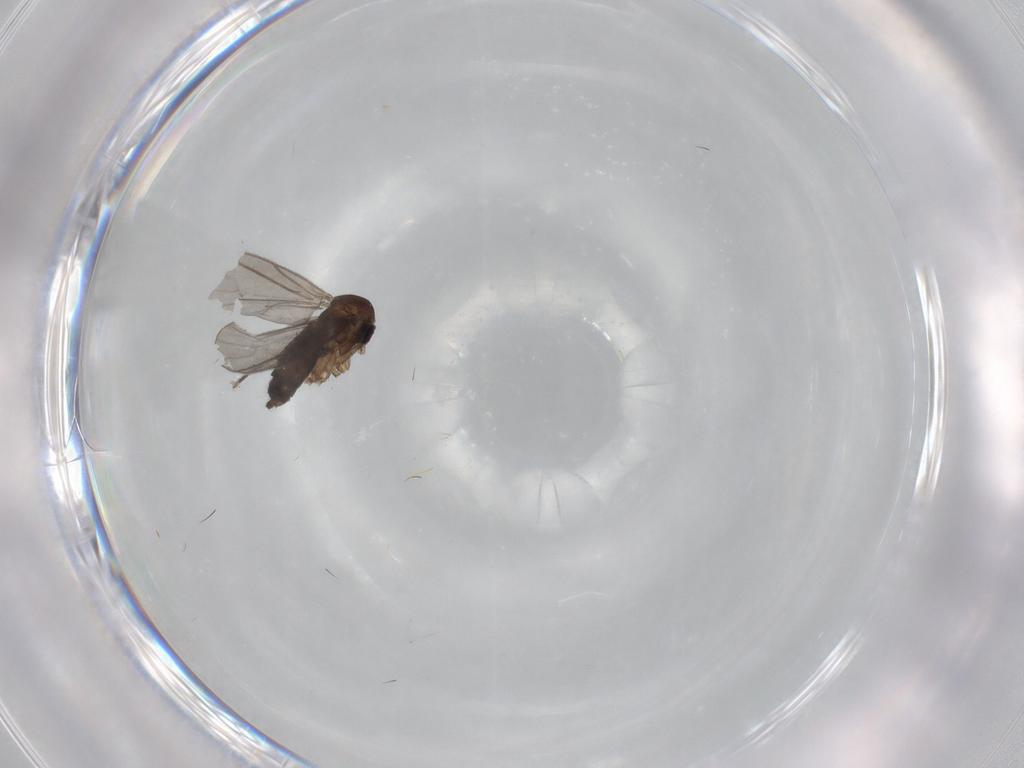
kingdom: Animalia
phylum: Arthropoda
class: Insecta
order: Diptera
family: Sciaridae
